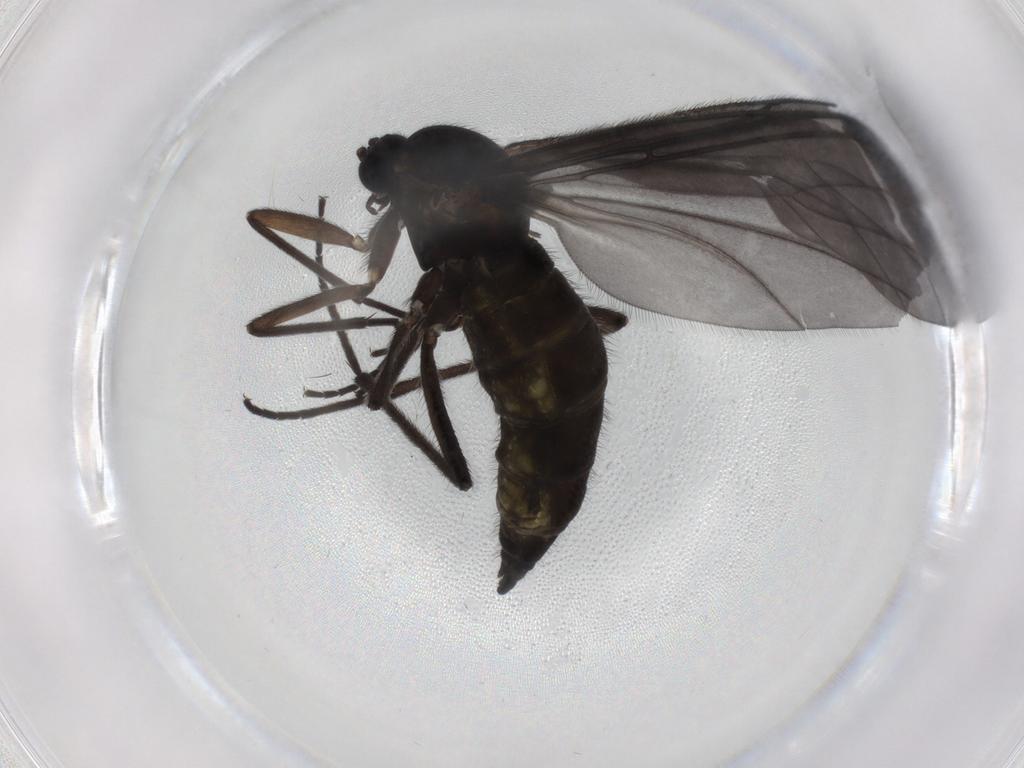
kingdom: Animalia
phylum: Arthropoda
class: Insecta
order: Diptera
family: Sciaridae
